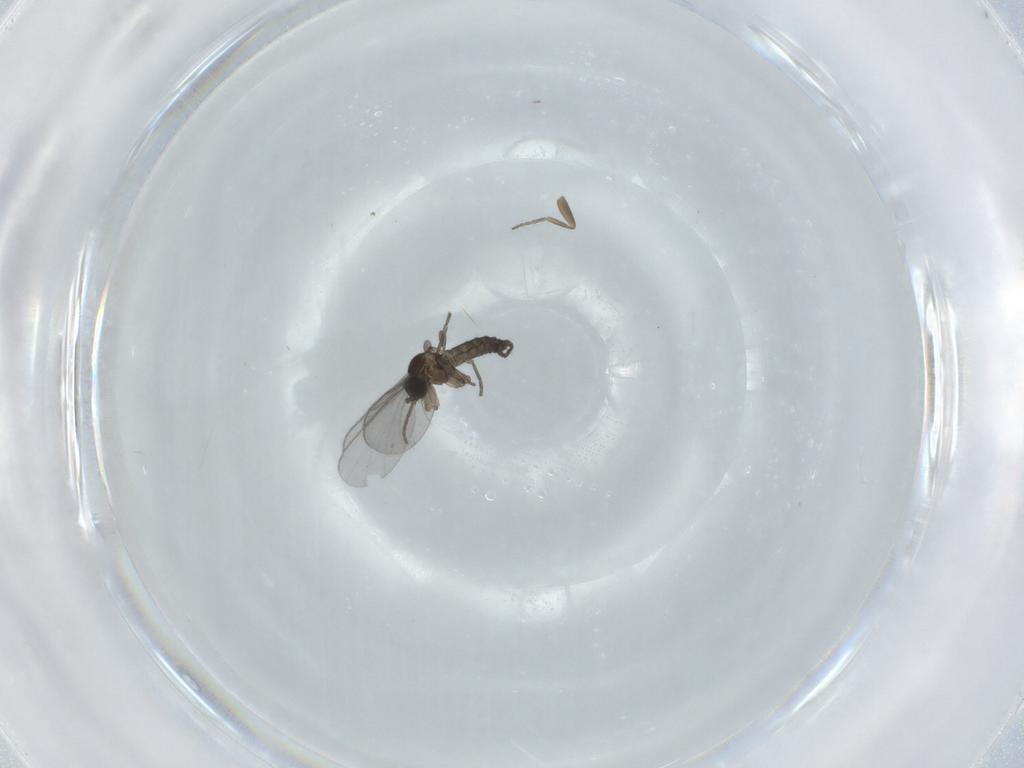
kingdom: Animalia
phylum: Arthropoda
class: Insecta
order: Diptera
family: Sciaridae
